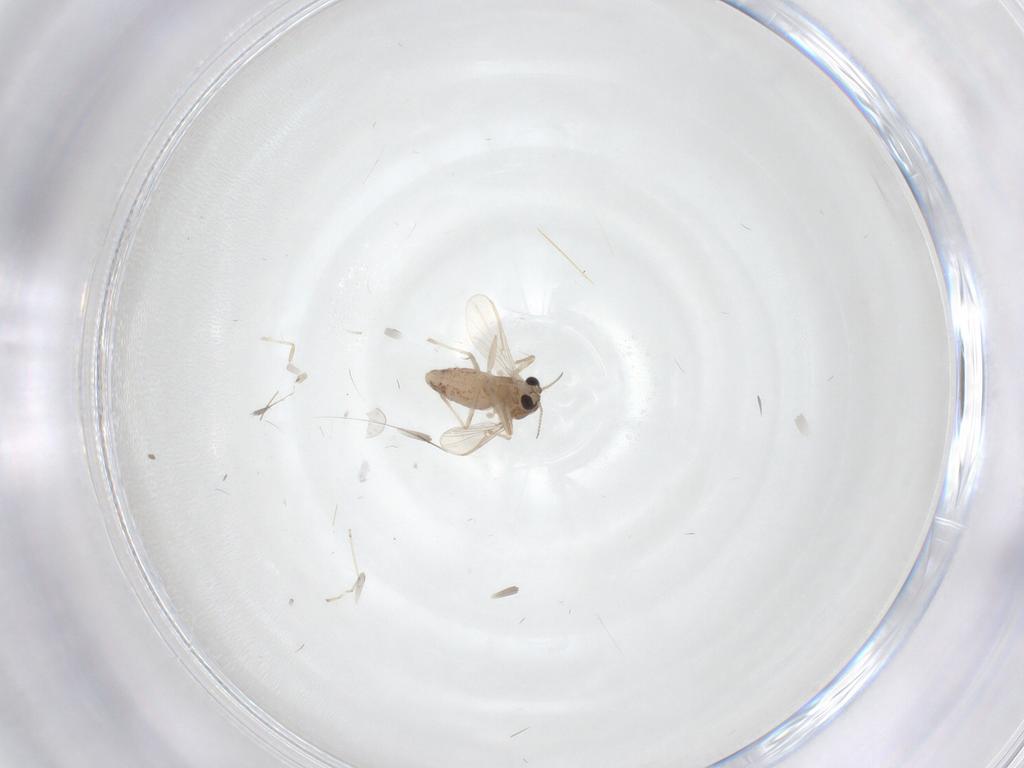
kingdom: Animalia
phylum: Arthropoda
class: Insecta
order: Diptera
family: Chironomidae
